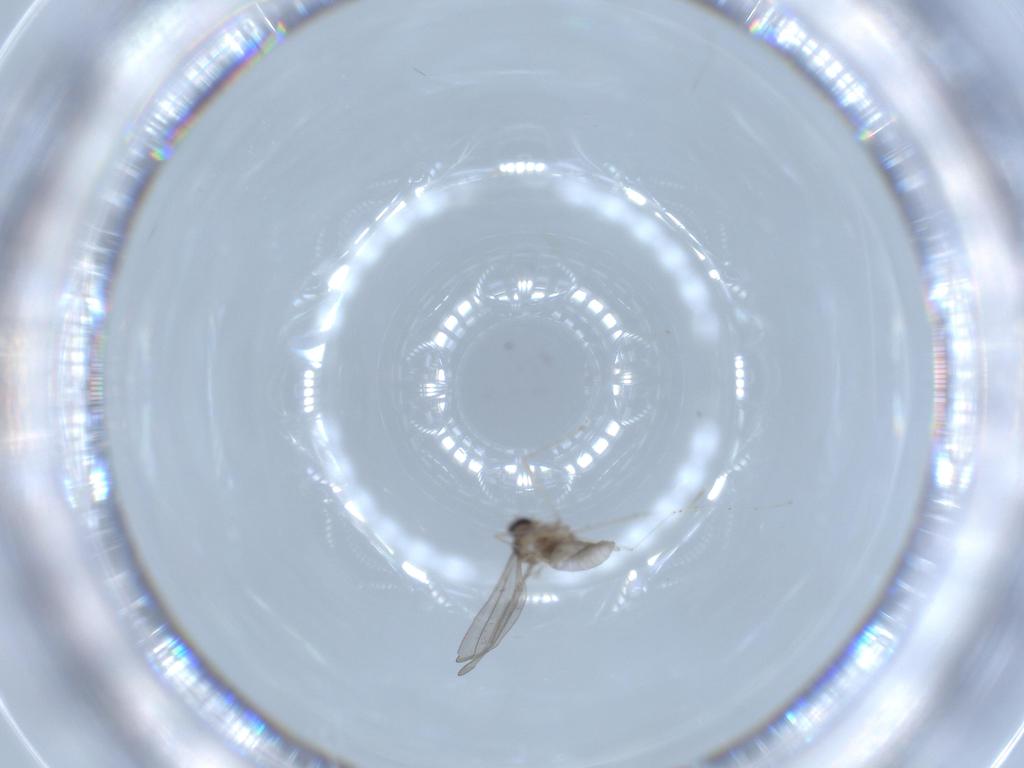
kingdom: Animalia
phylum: Arthropoda
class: Insecta
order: Diptera
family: Cecidomyiidae
